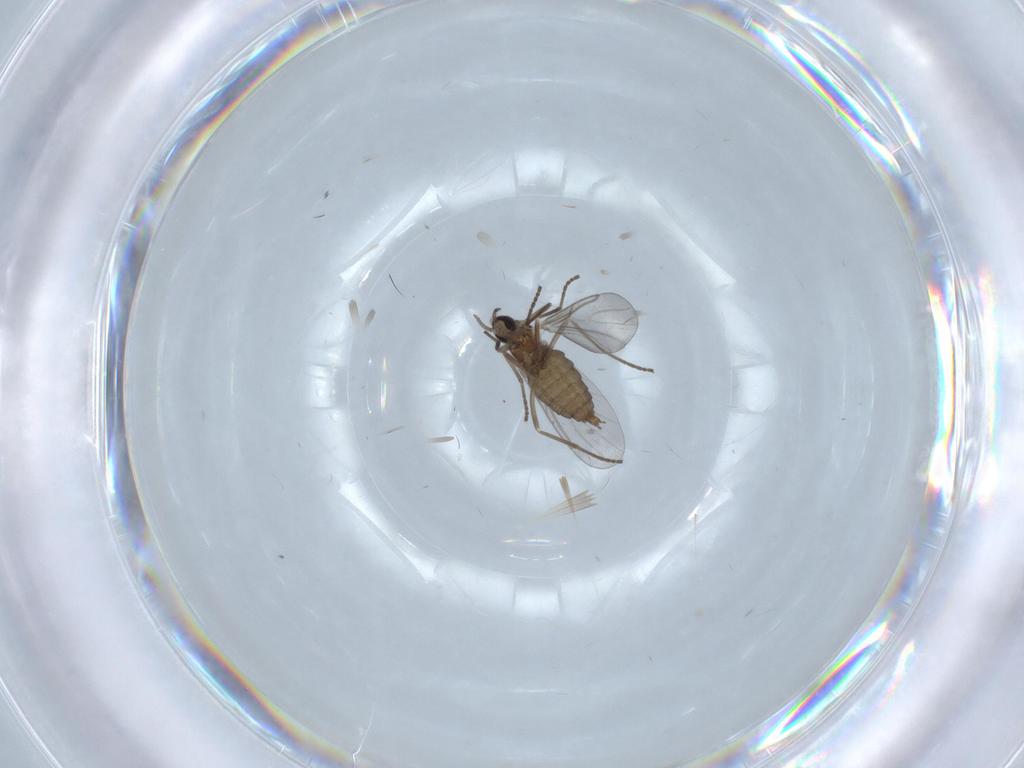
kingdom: Animalia
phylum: Arthropoda
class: Insecta
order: Diptera
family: Cecidomyiidae
